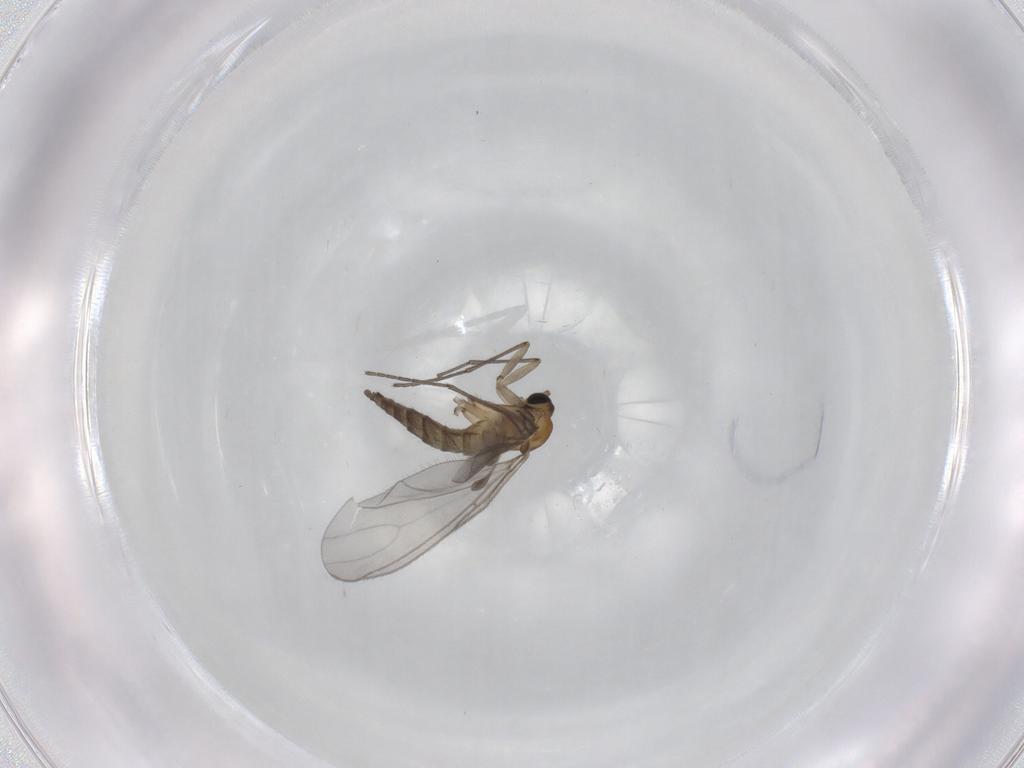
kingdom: Animalia
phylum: Arthropoda
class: Insecta
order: Diptera
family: Sciaridae
